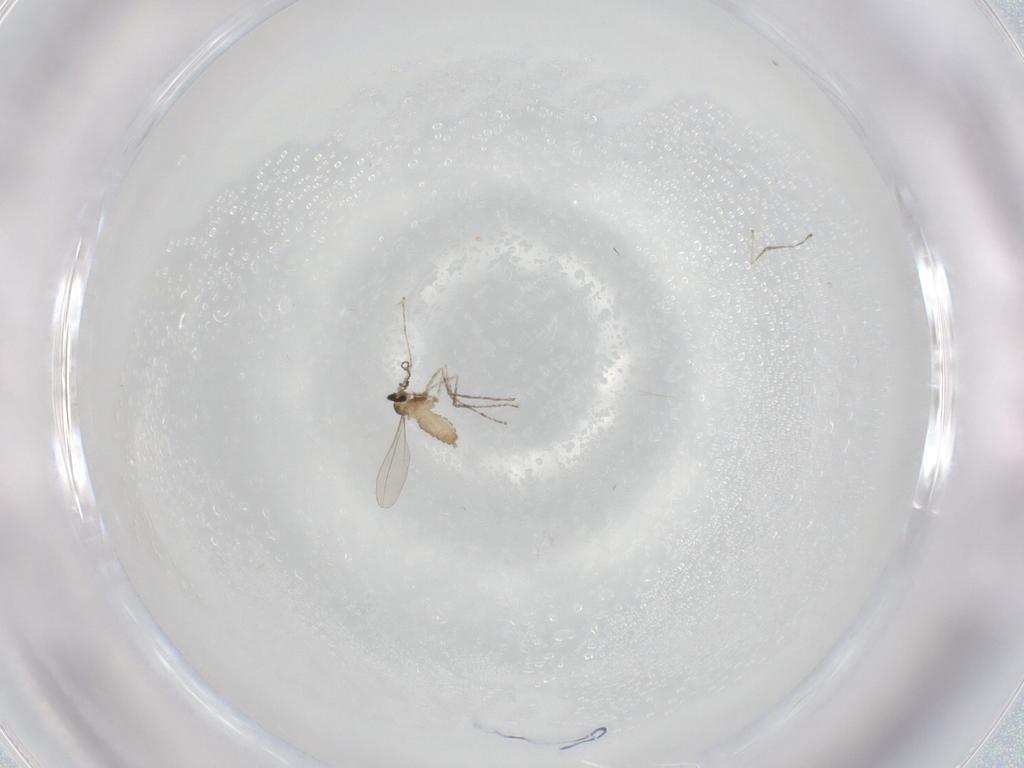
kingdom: Animalia
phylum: Arthropoda
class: Insecta
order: Diptera
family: Cecidomyiidae
